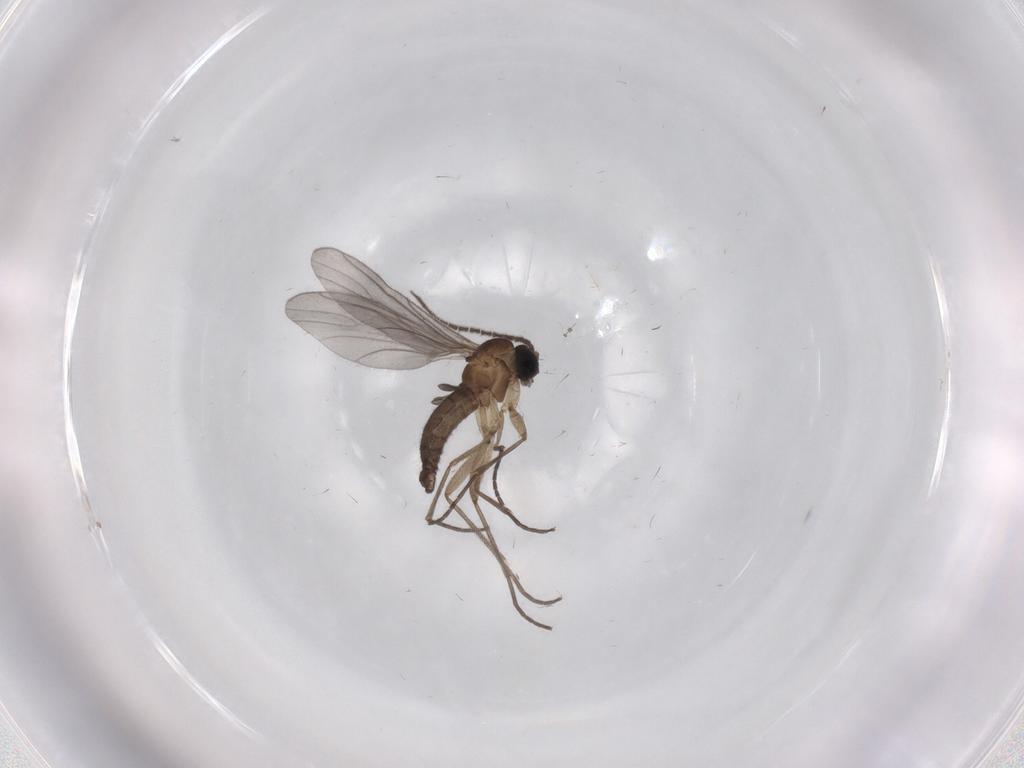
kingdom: Animalia
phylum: Arthropoda
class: Insecta
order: Diptera
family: Sciaridae
